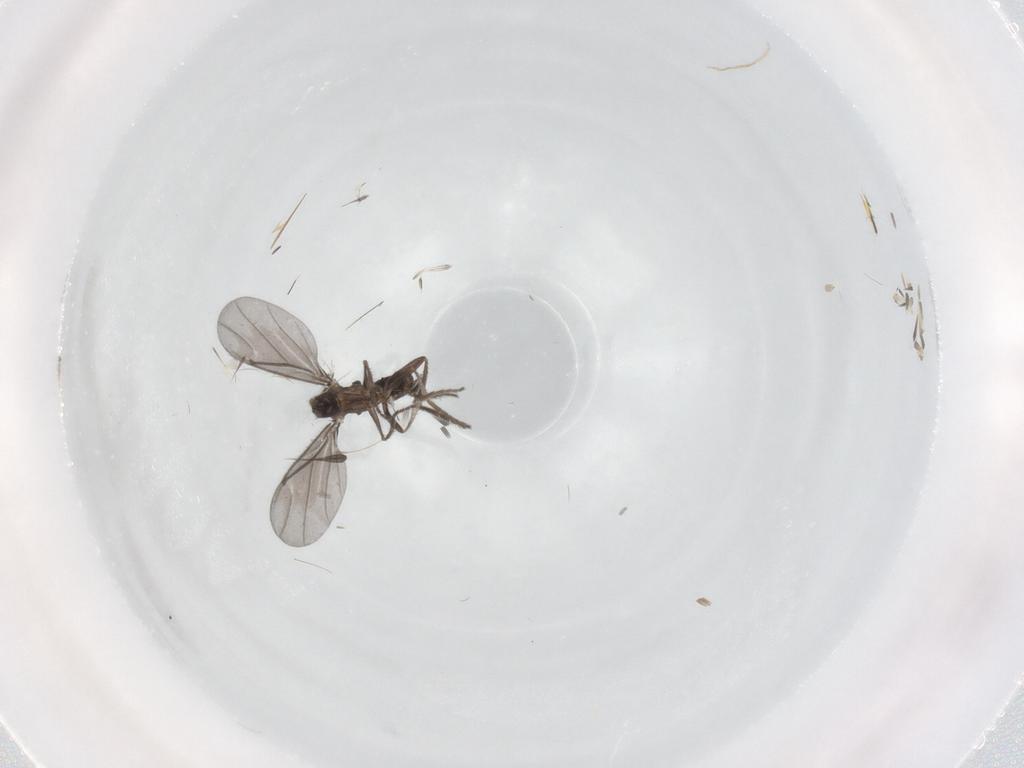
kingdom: Animalia
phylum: Arthropoda
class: Insecta
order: Diptera
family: Phoridae
